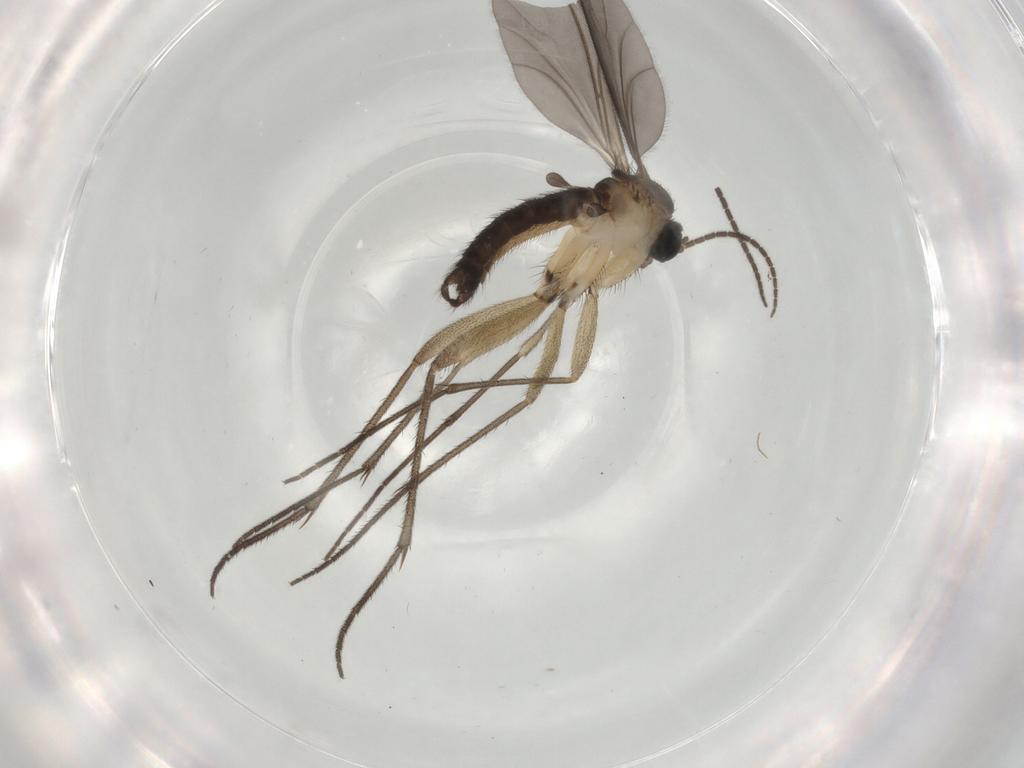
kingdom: Animalia
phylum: Arthropoda
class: Insecta
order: Diptera
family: Sciaridae
